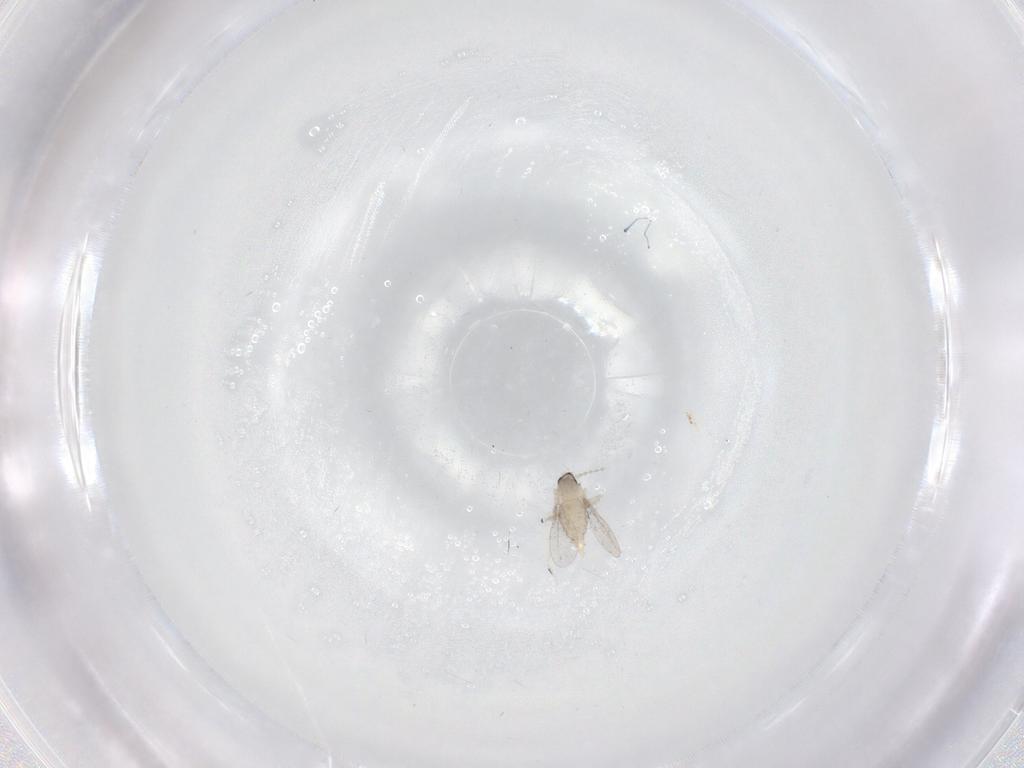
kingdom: Animalia
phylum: Arthropoda
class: Insecta
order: Diptera
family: Cecidomyiidae
